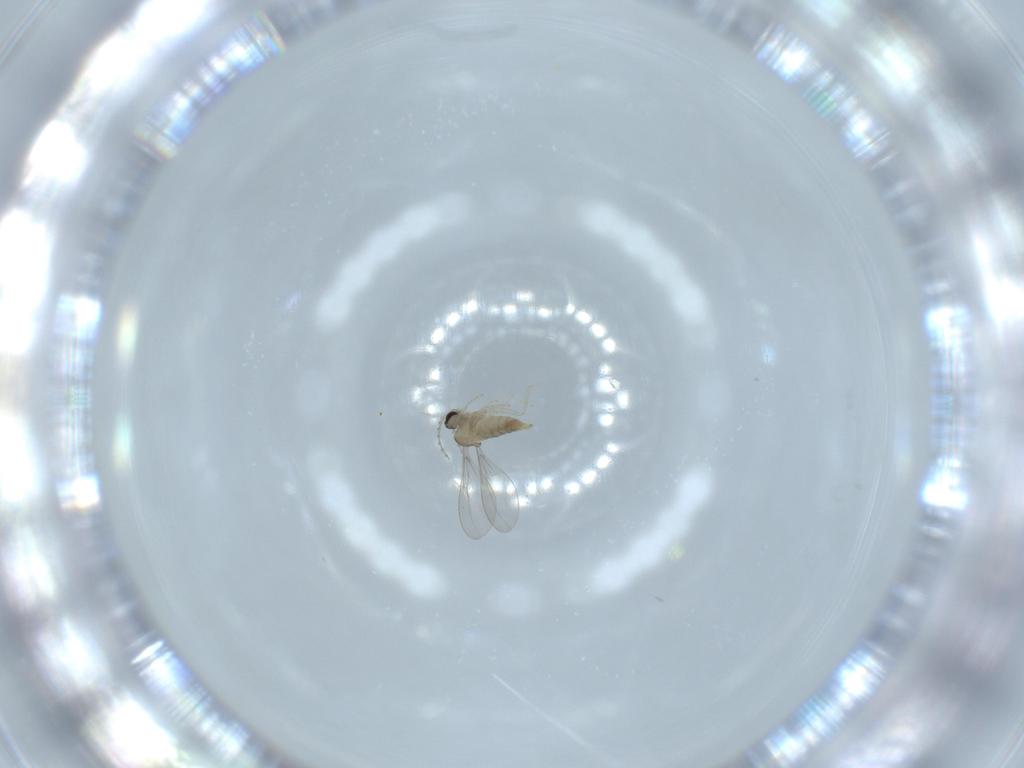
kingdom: Animalia
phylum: Arthropoda
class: Insecta
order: Diptera
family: Cecidomyiidae
